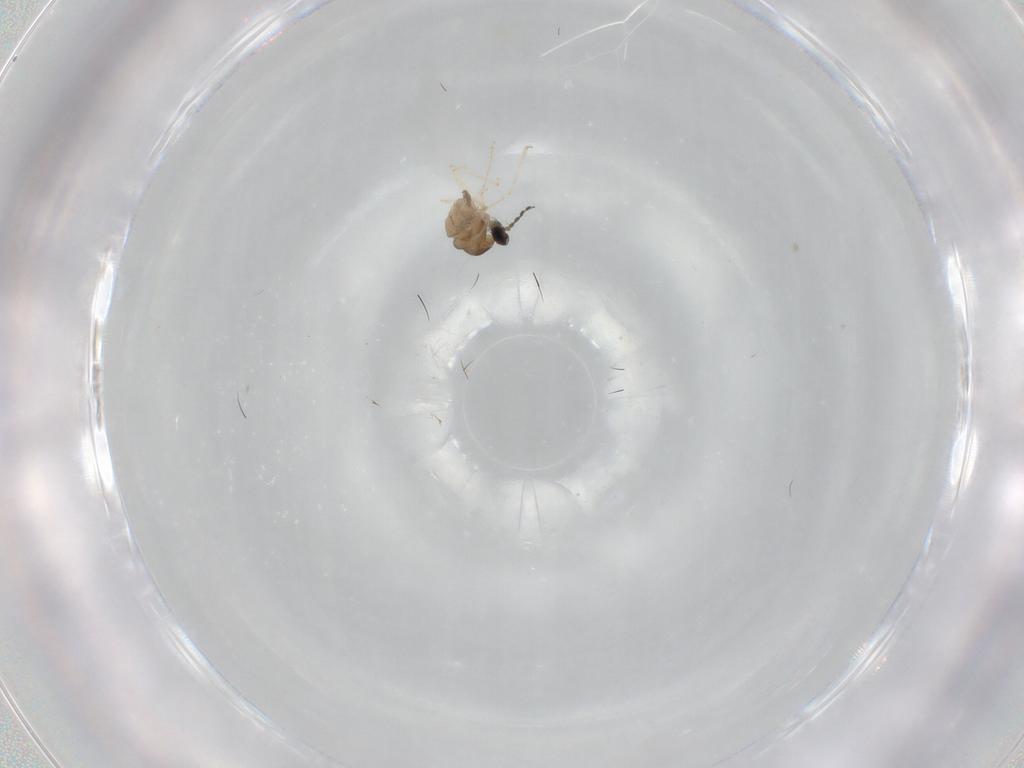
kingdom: Animalia
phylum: Arthropoda
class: Insecta
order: Diptera
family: Cecidomyiidae
